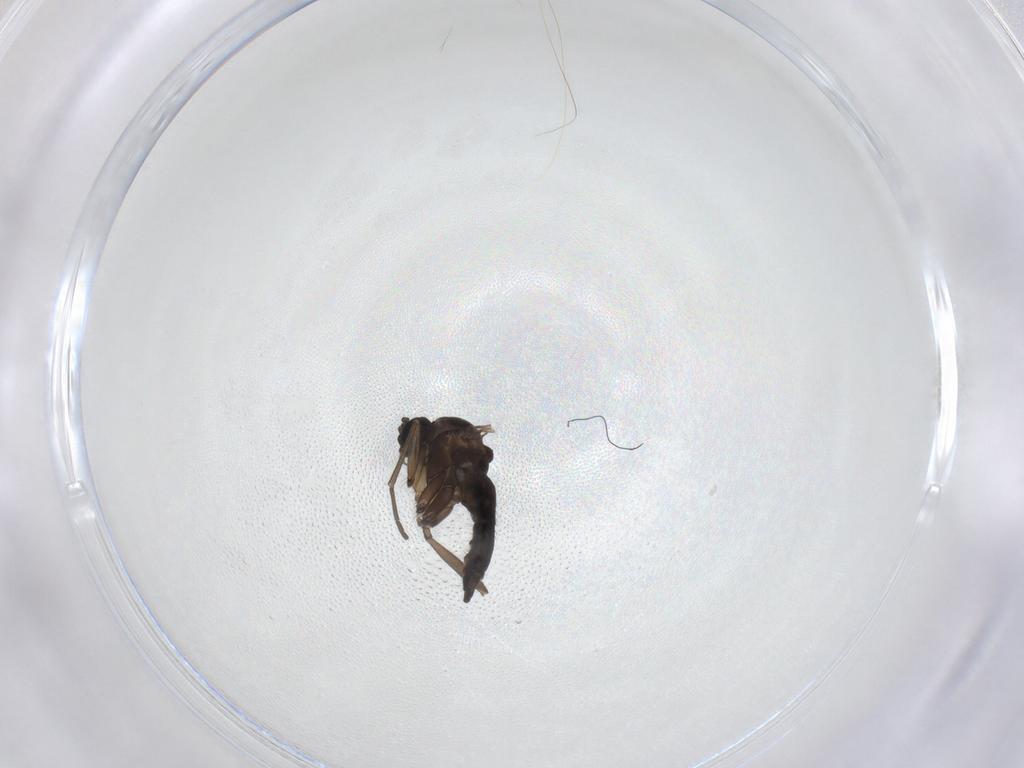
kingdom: Animalia
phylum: Arthropoda
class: Insecta
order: Diptera
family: Sciaridae
